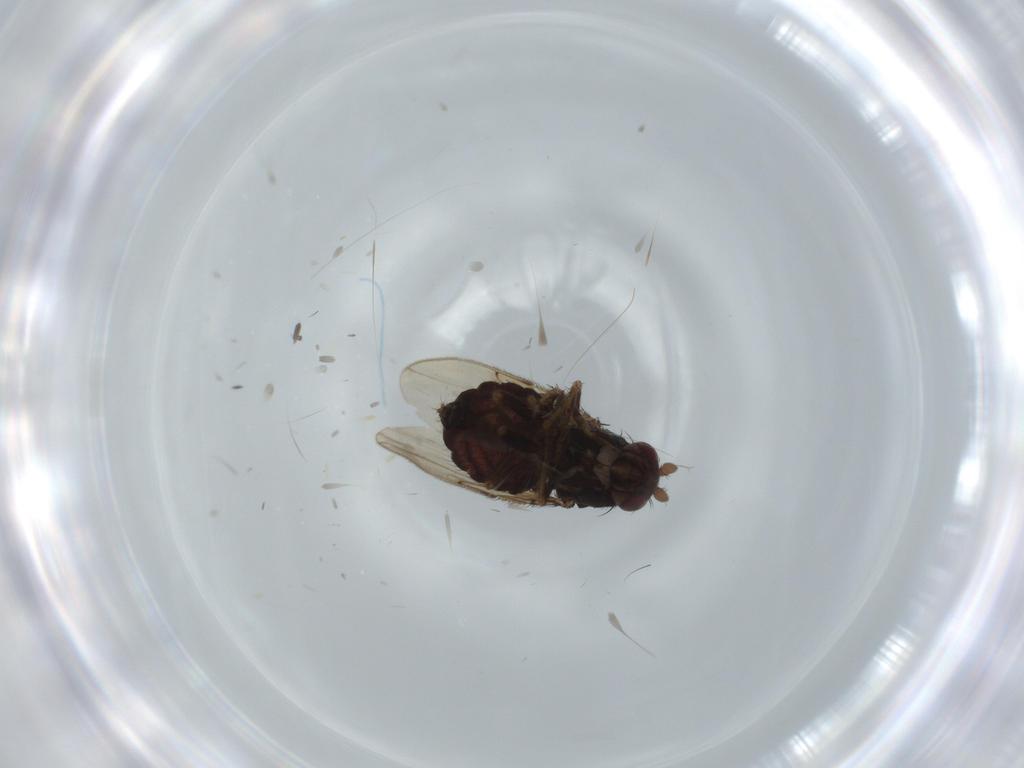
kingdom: Animalia
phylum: Arthropoda
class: Insecta
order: Diptera
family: Sphaeroceridae
